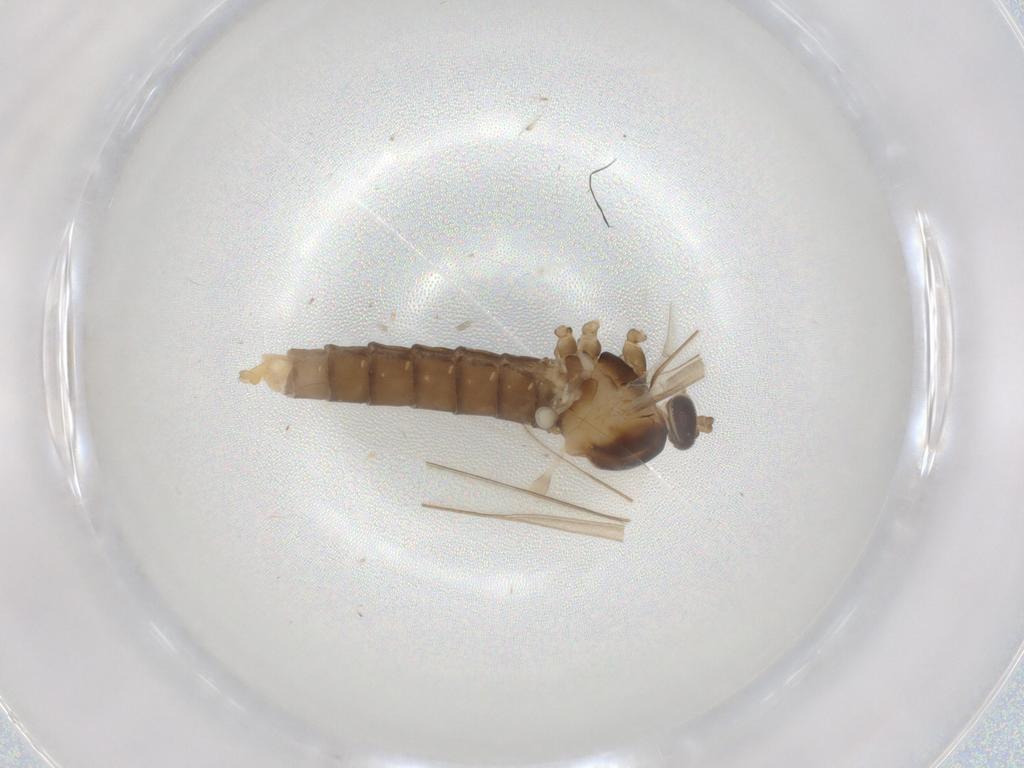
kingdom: Animalia
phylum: Arthropoda
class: Insecta
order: Diptera
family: Cecidomyiidae
